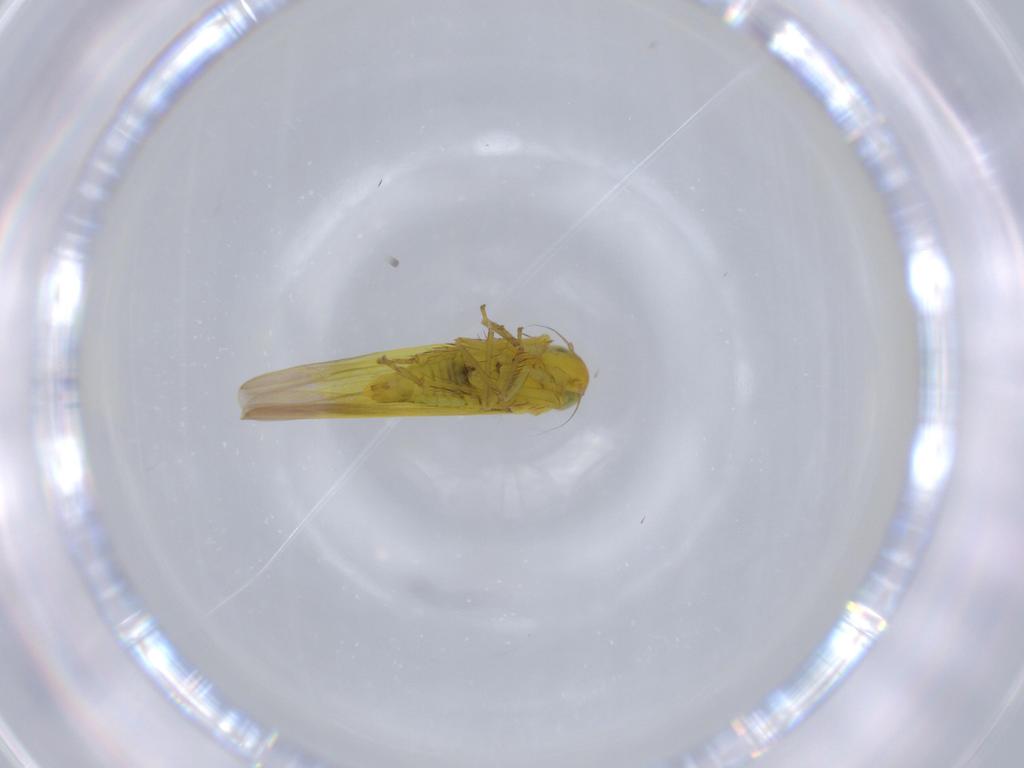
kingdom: Animalia
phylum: Arthropoda
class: Insecta
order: Hemiptera
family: Cicadellidae
